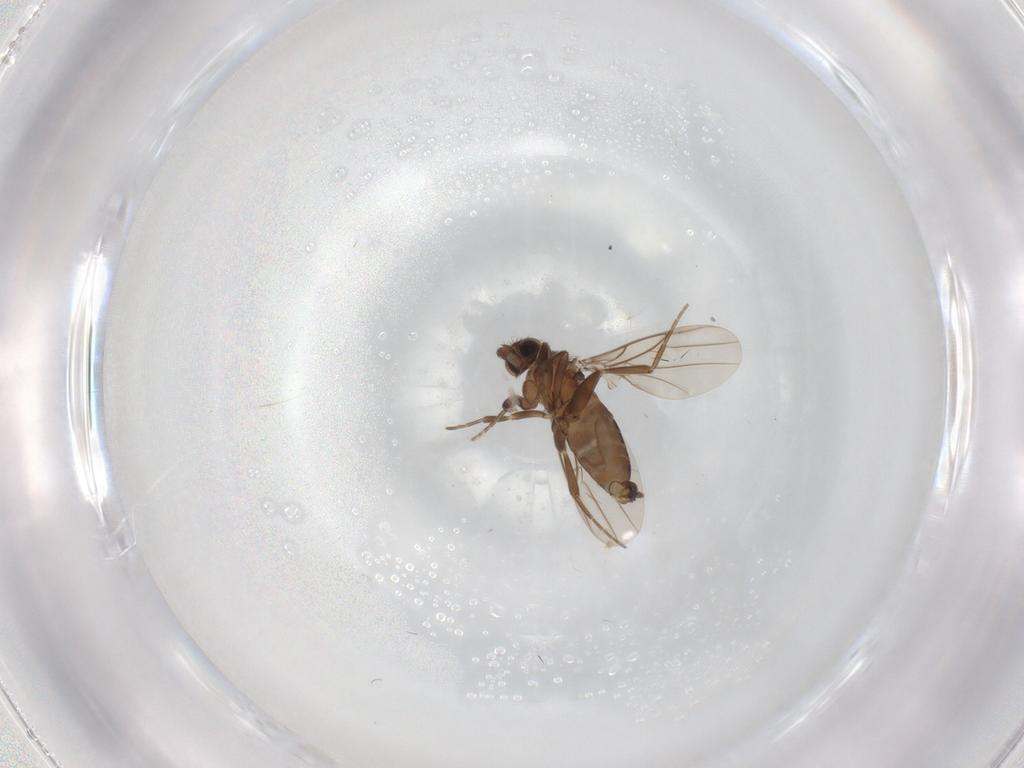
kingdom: Animalia
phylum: Arthropoda
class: Insecta
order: Diptera
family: Phoridae
